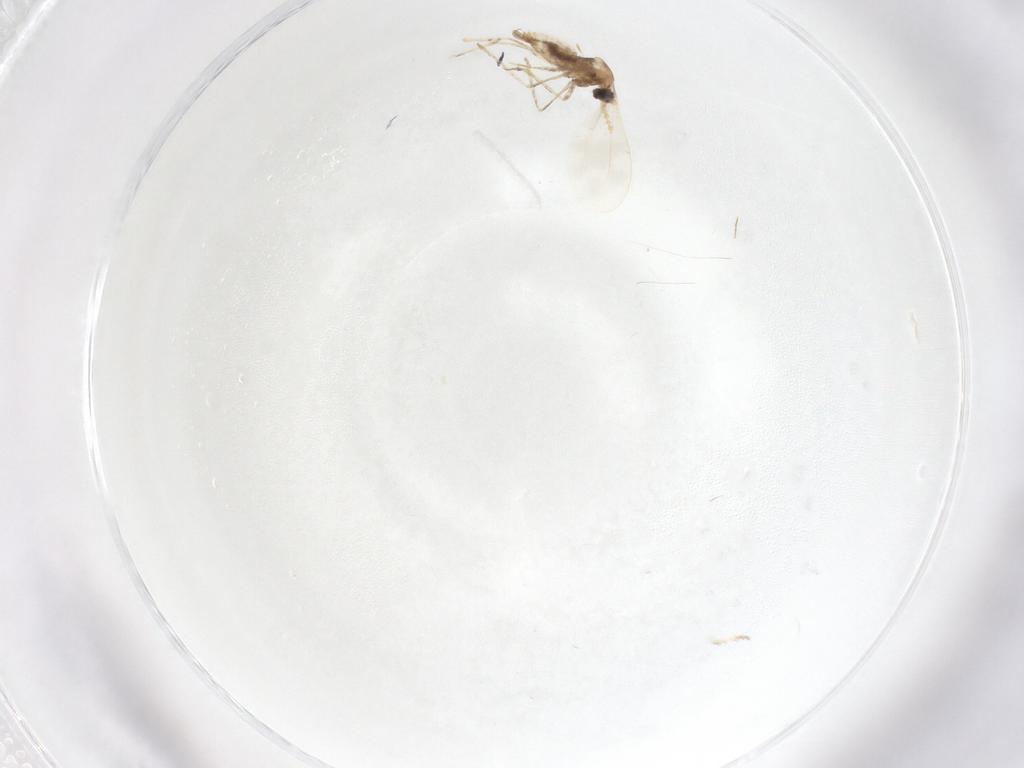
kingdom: Animalia
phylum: Arthropoda
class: Insecta
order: Diptera
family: Cecidomyiidae
